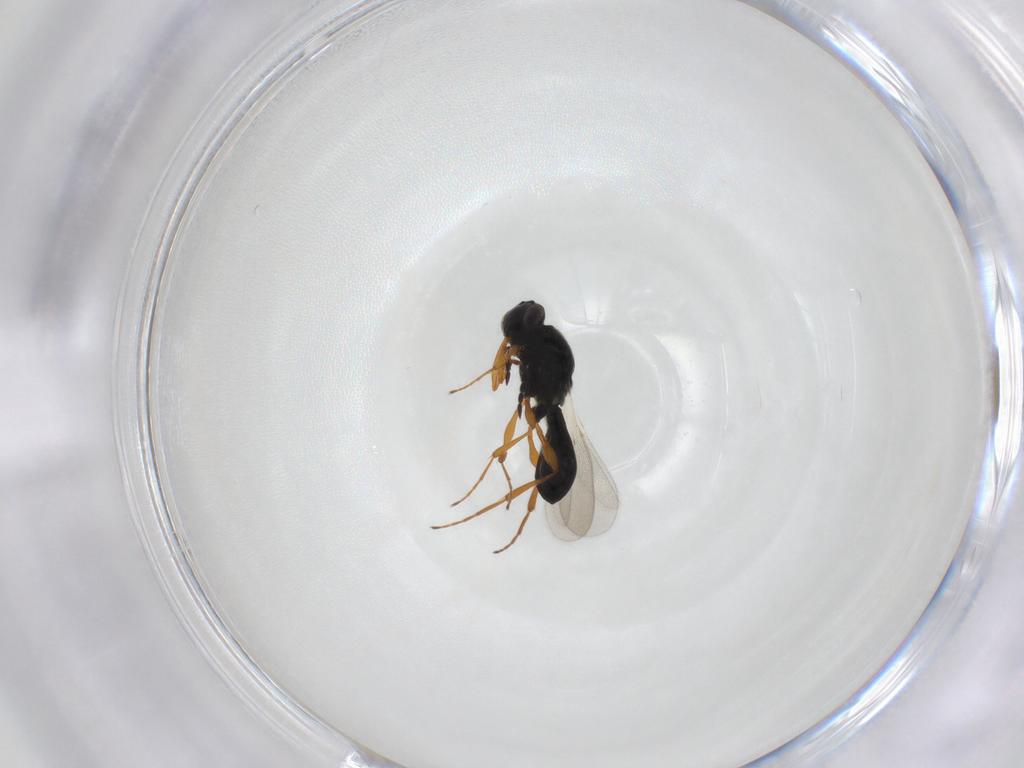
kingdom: Animalia
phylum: Arthropoda
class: Insecta
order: Hymenoptera
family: Platygastridae
